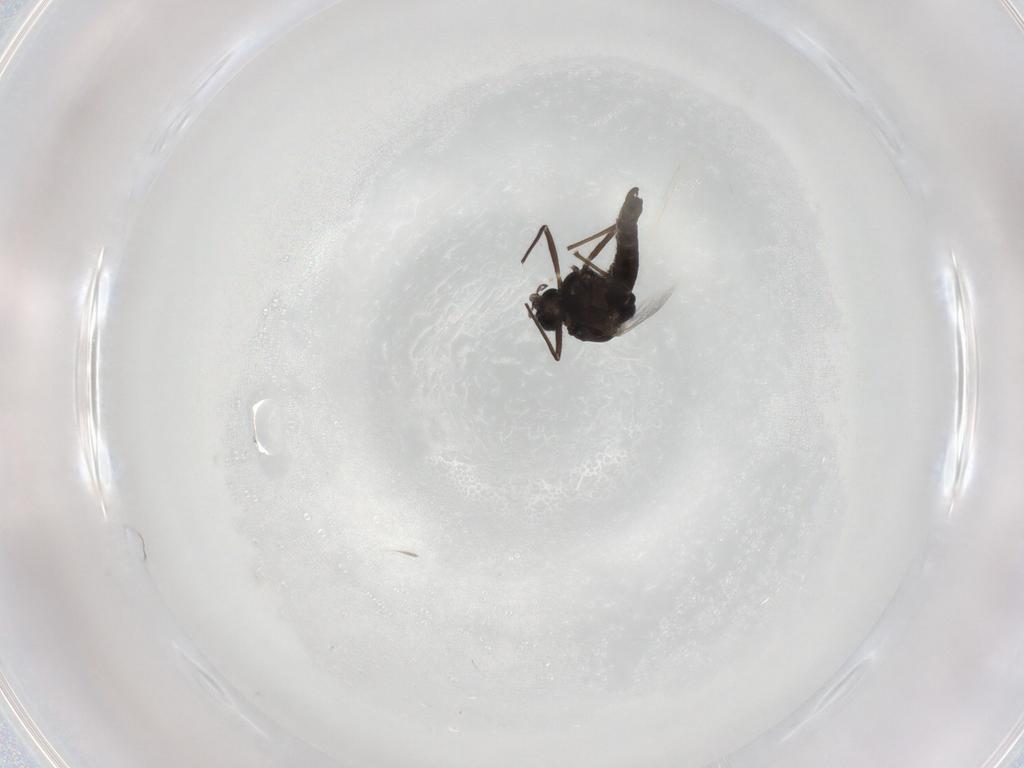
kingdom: Animalia
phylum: Arthropoda
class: Insecta
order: Diptera
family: Chironomidae
